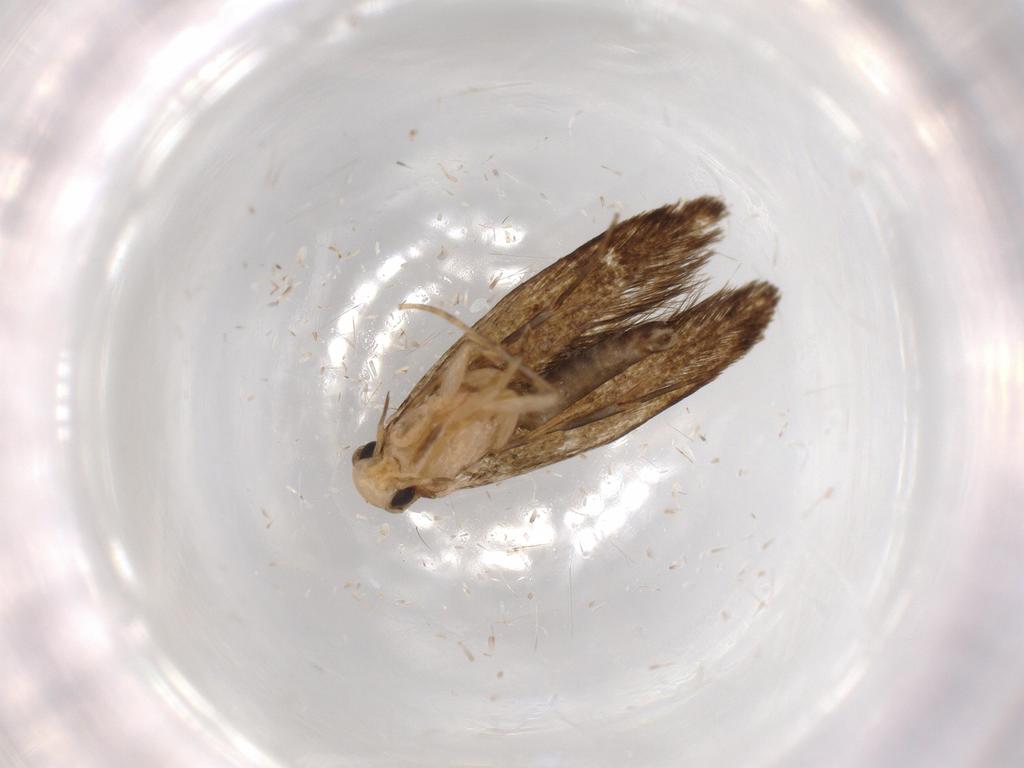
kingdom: Animalia
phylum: Arthropoda
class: Insecta
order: Lepidoptera
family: Tineidae
